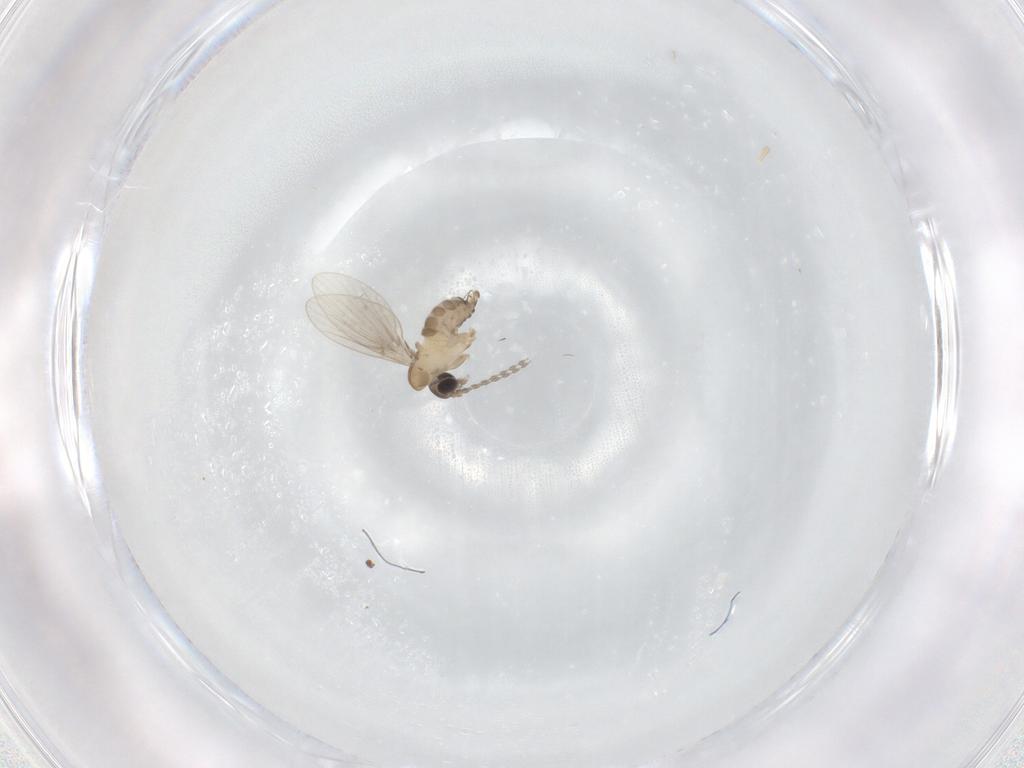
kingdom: Animalia
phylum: Arthropoda
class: Insecta
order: Diptera
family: Psychodidae
